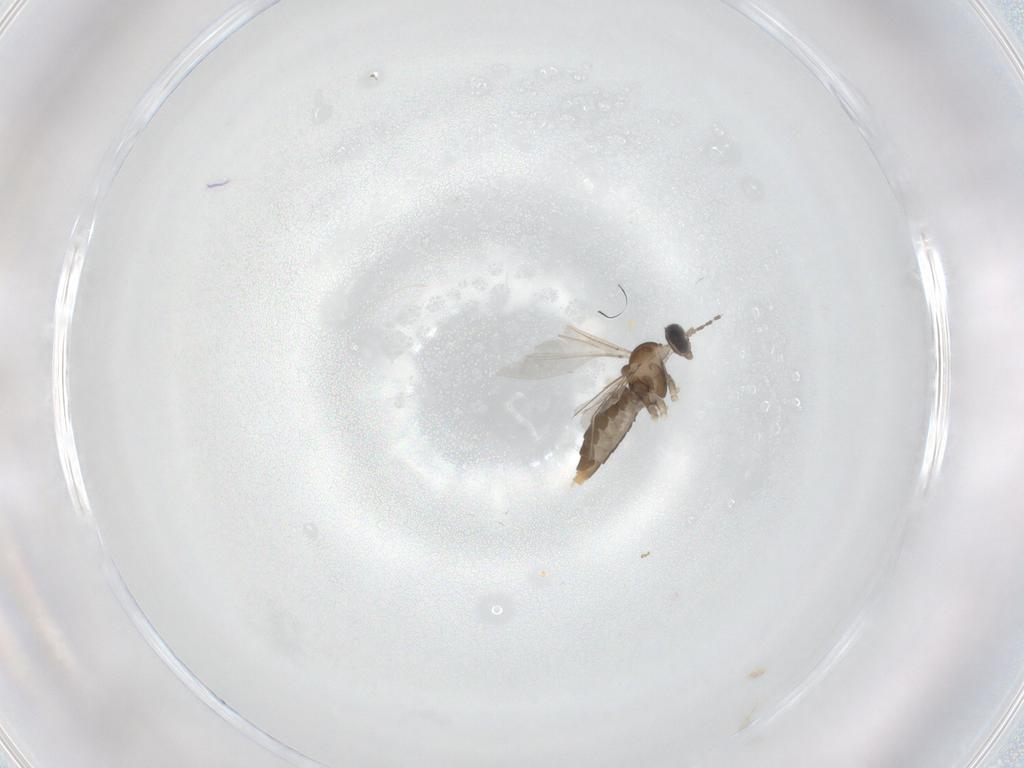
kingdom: Animalia
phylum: Arthropoda
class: Insecta
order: Diptera
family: Cecidomyiidae
